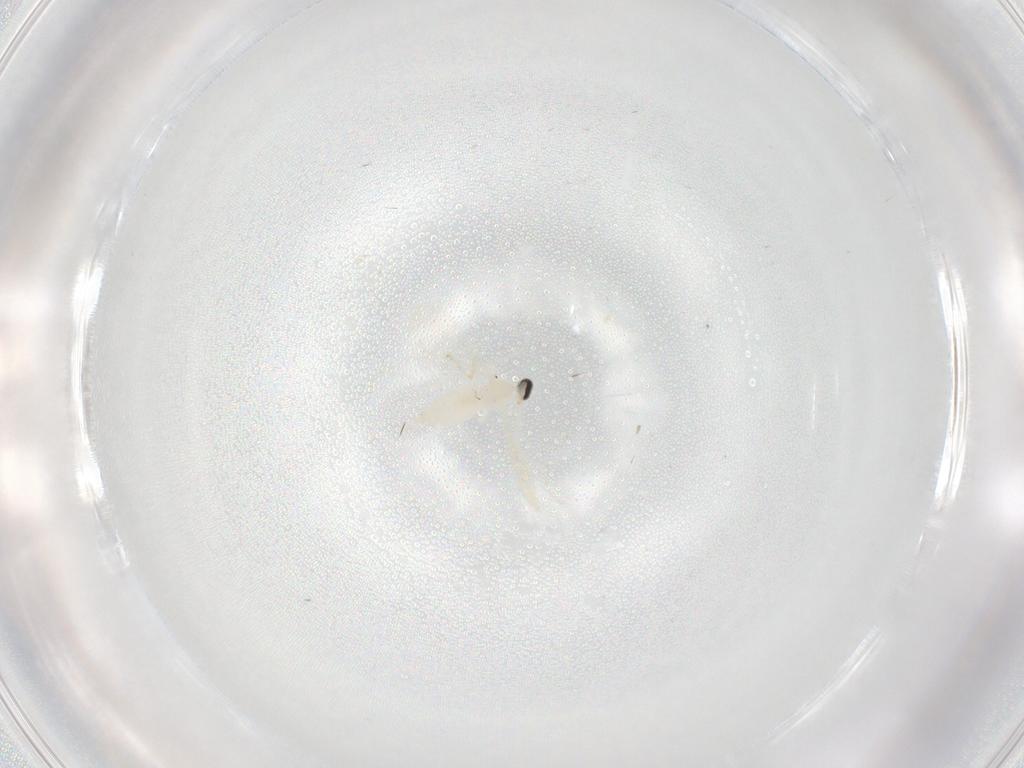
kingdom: Animalia
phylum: Arthropoda
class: Insecta
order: Diptera
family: Cecidomyiidae
